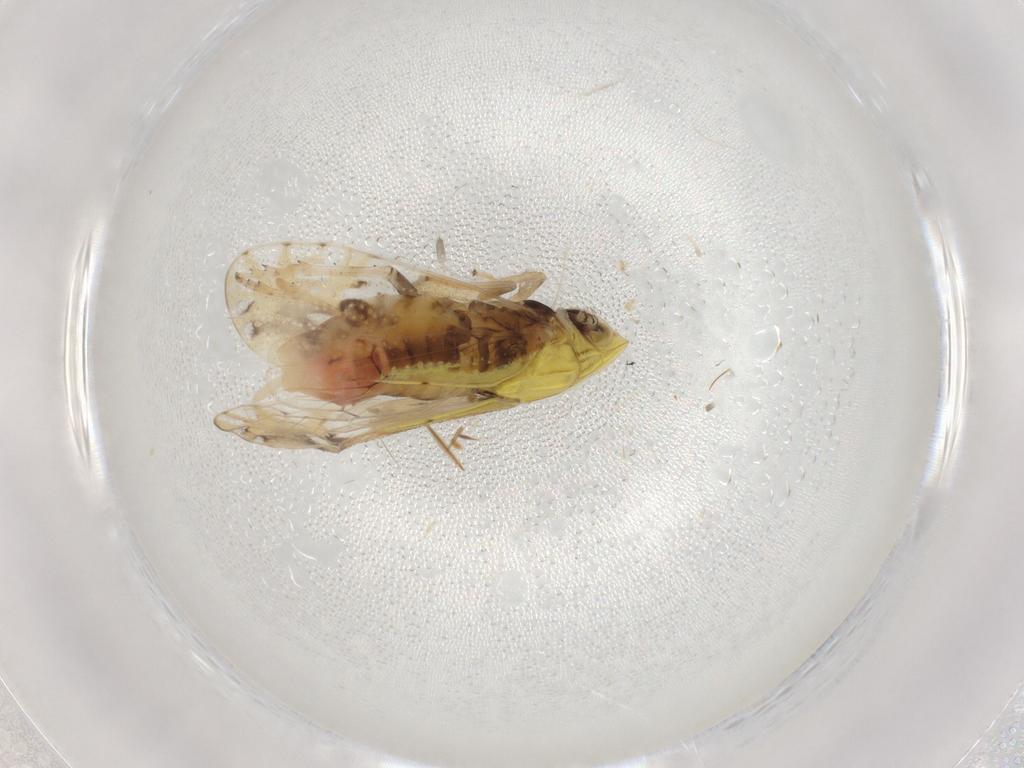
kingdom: Animalia
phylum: Arthropoda
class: Insecta
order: Hemiptera
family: Delphacidae
